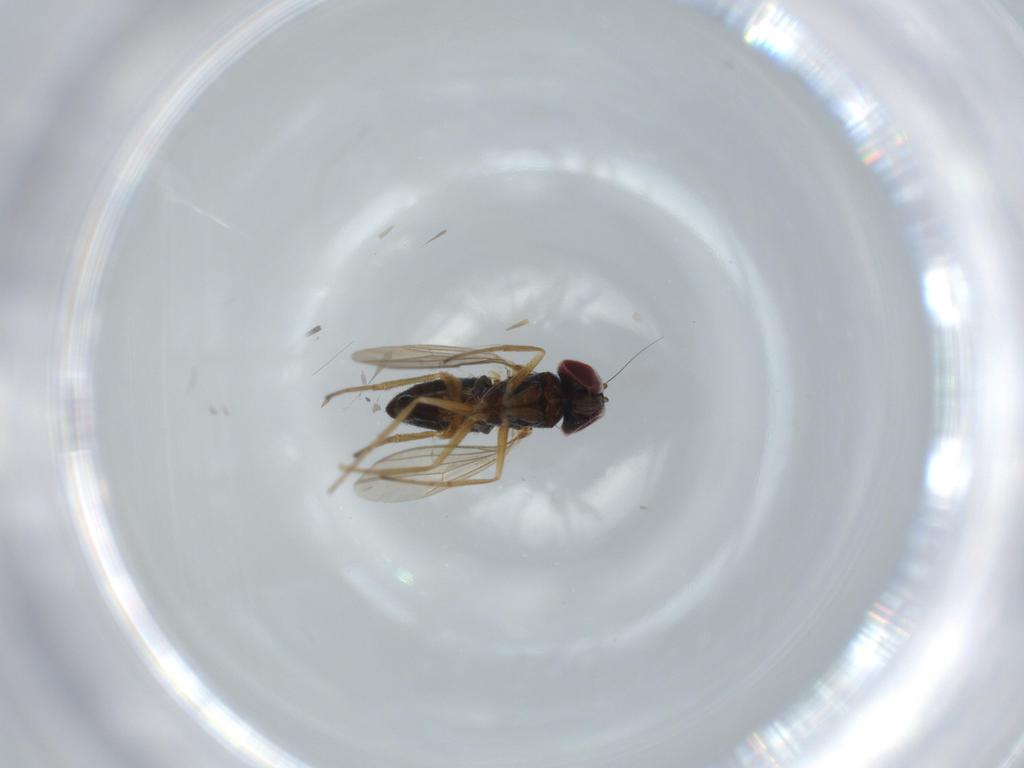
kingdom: Animalia
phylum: Arthropoda
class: Insecta
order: Diptera
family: Dolichopodidae
